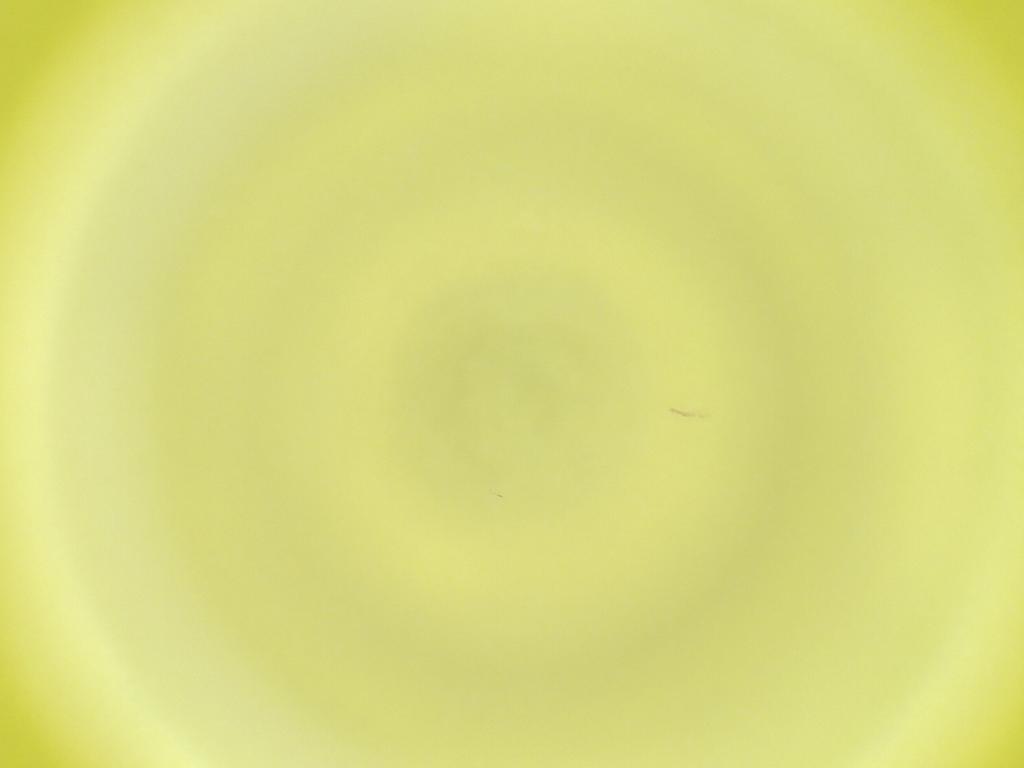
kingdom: Animalia
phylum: Arthropoda
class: Insecta
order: Diptera
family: Cecidomyiidae
